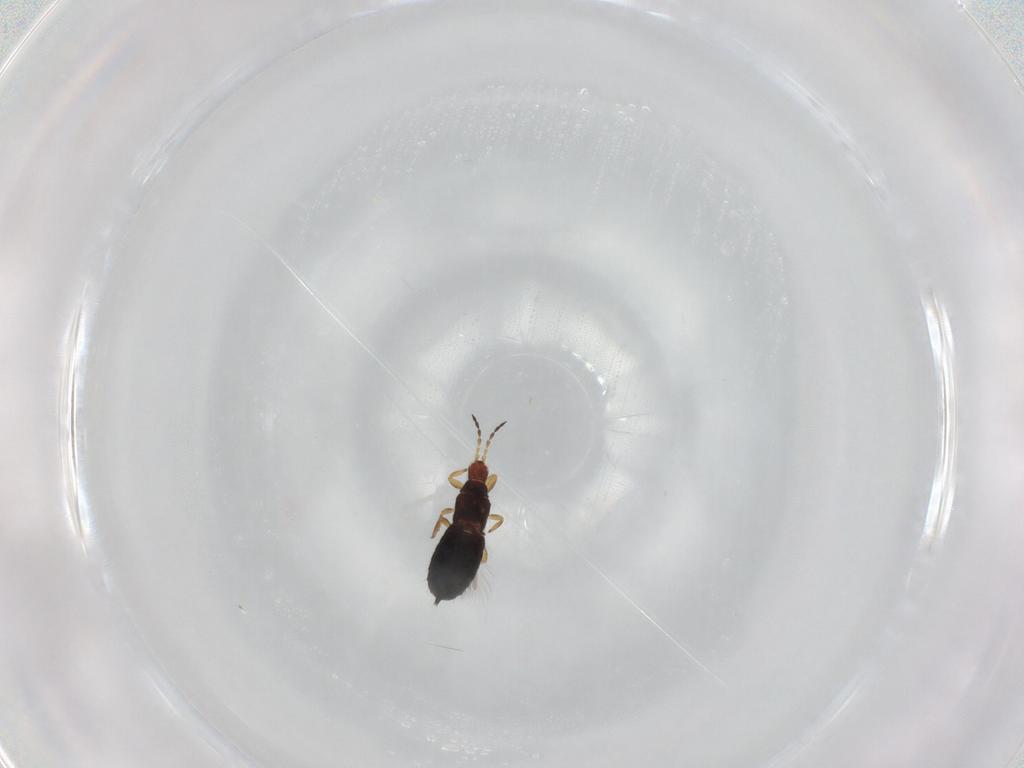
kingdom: Animalia
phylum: Arthropoda
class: Insecta
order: Thysanoptera
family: Phlaeothripidae
